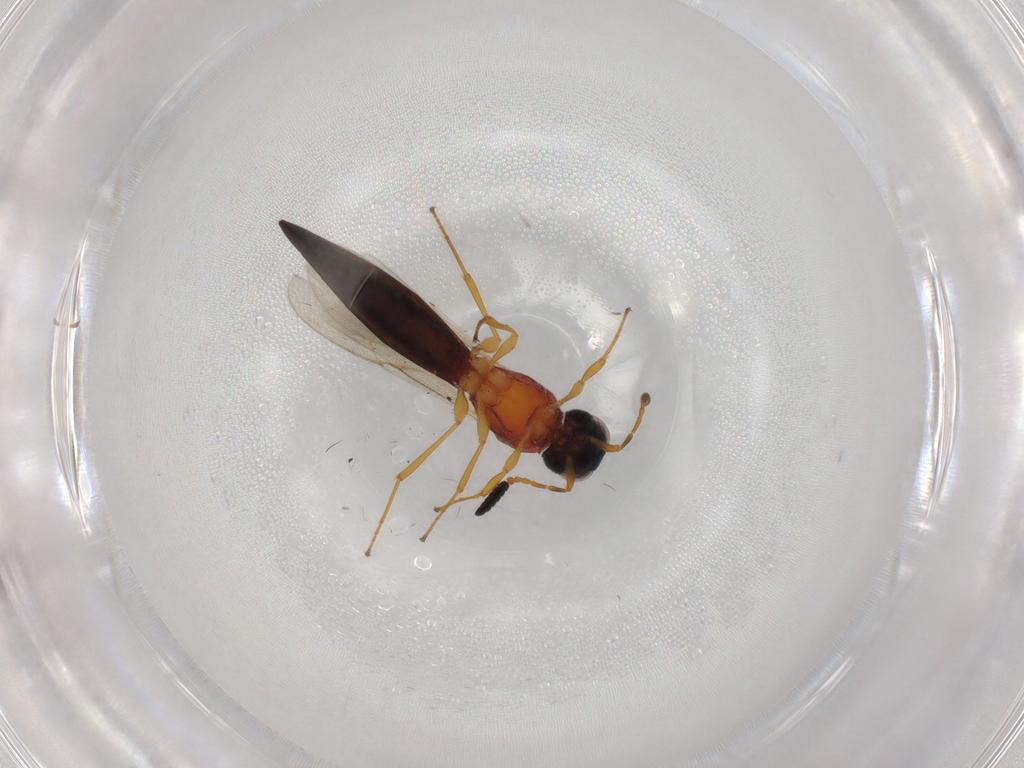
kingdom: Animalia
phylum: Arthropoda
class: Insecta
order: Hymenoptera
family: Scelionidae
